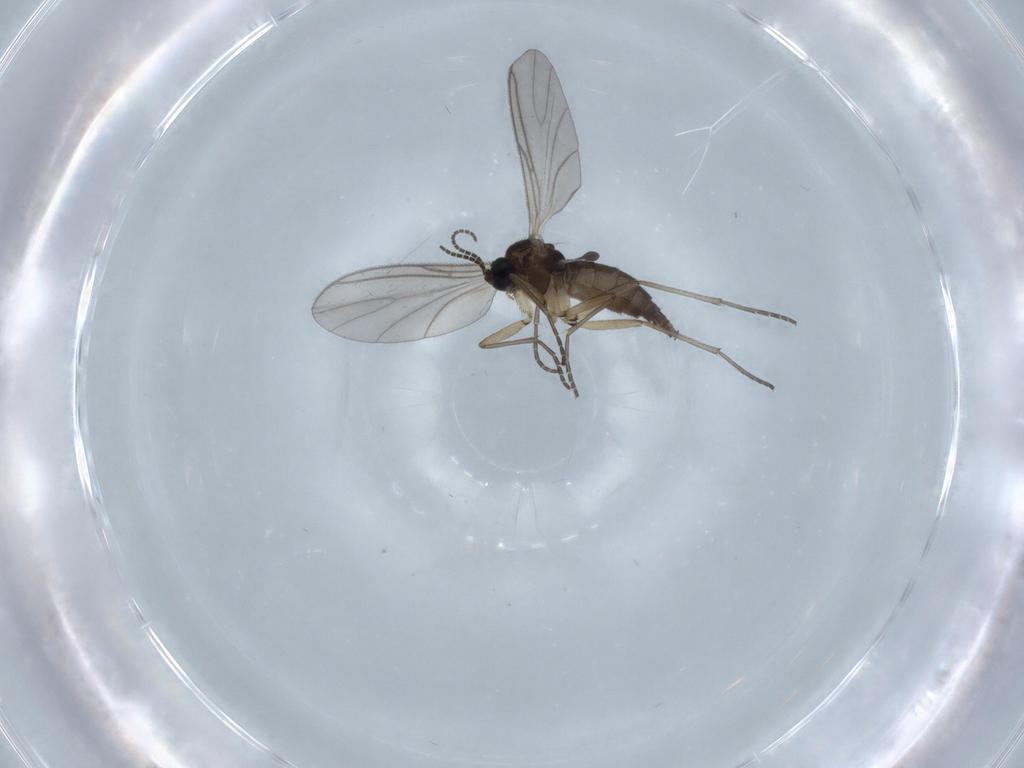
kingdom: Animalia
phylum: Arthropoda
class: Insecta
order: Diptera
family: Sciaridae
